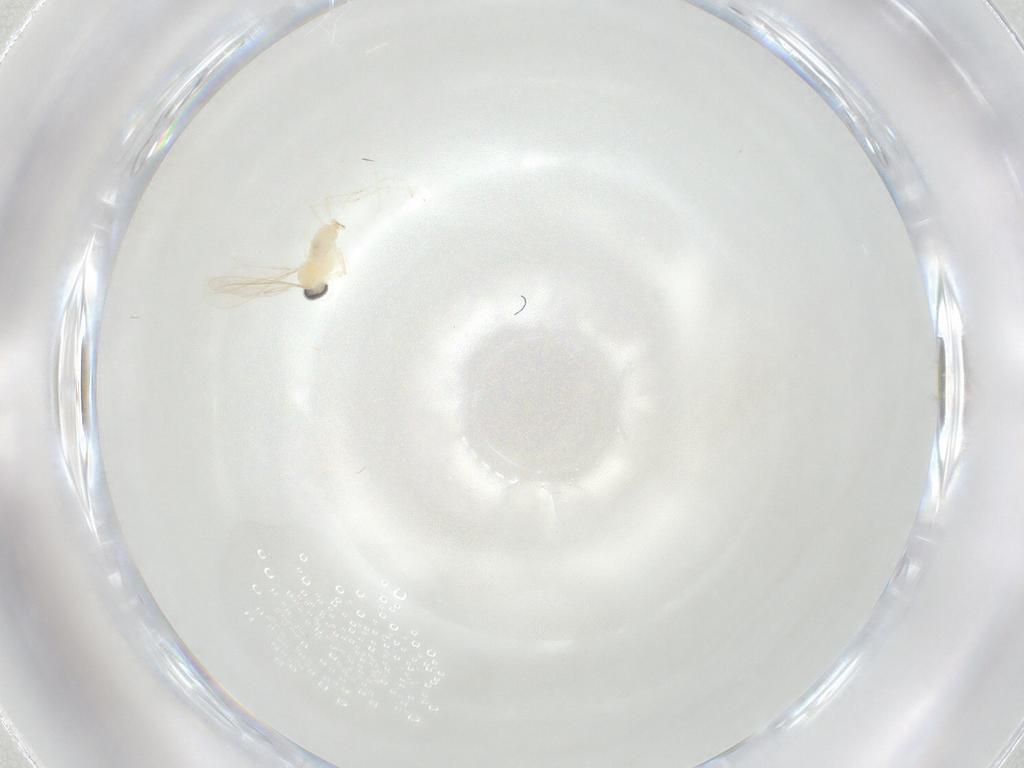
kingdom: Animalia
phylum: Arthropoda
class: Insecta
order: Diptera
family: Cecidomyiidae
